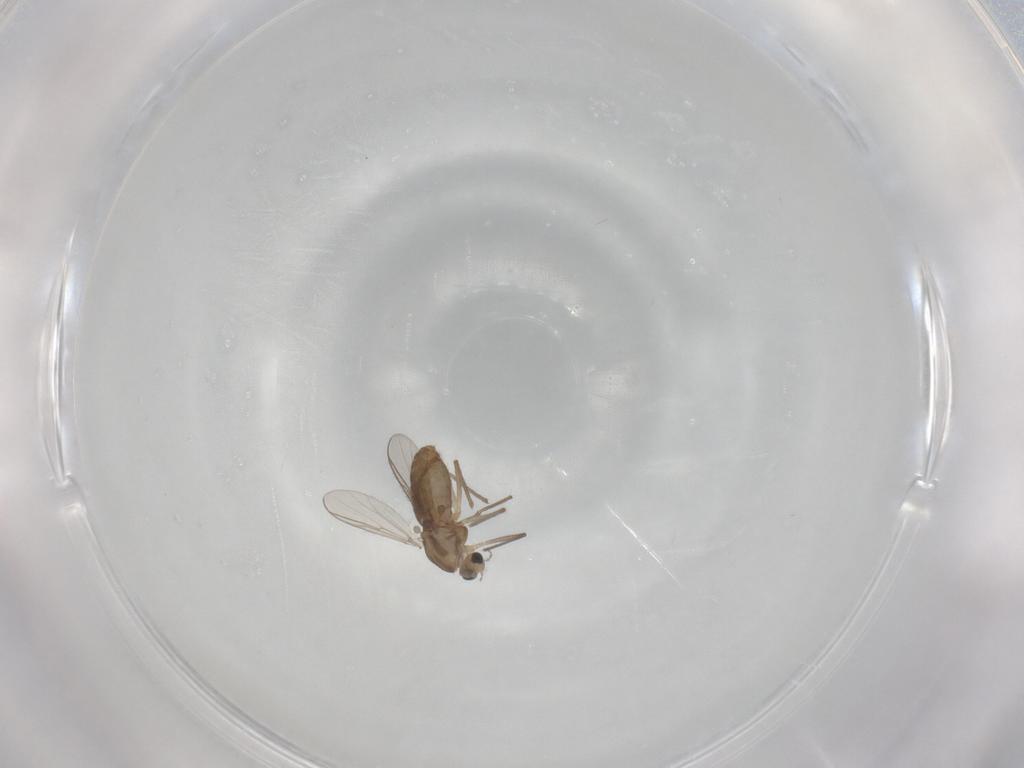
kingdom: Animalia
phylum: Arthropoda
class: Insecta
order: Diptera
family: Chironomidae
